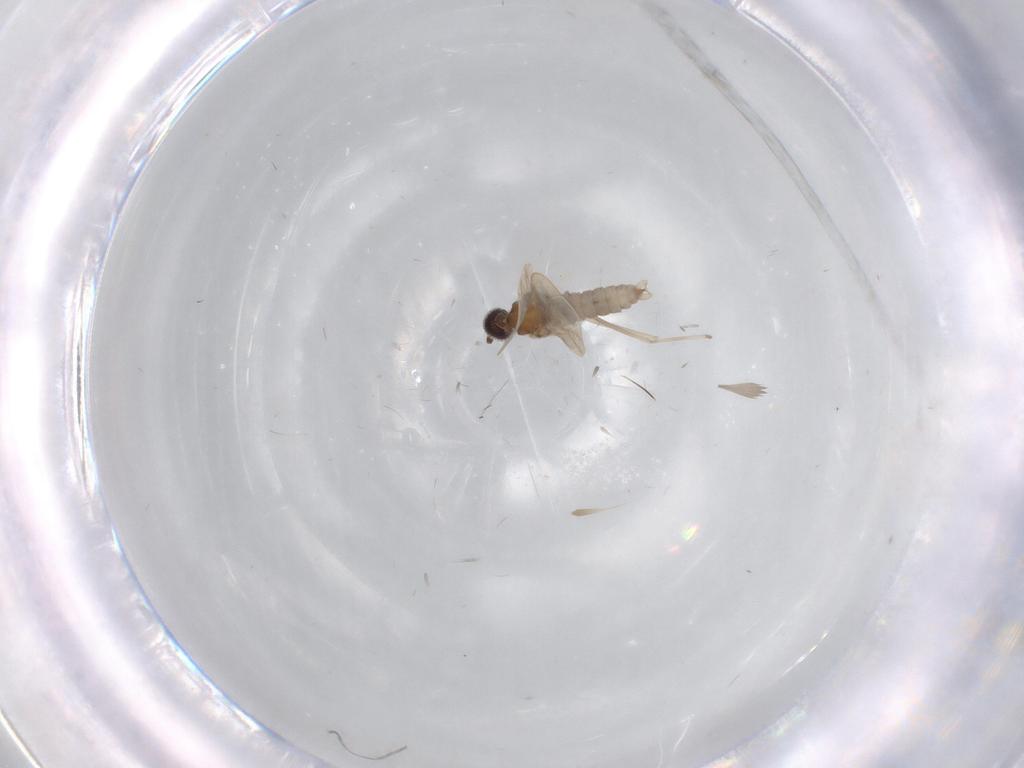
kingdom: Animalia
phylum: Arthropoda
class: Insecta
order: Diptera
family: Cecidomyiidae
